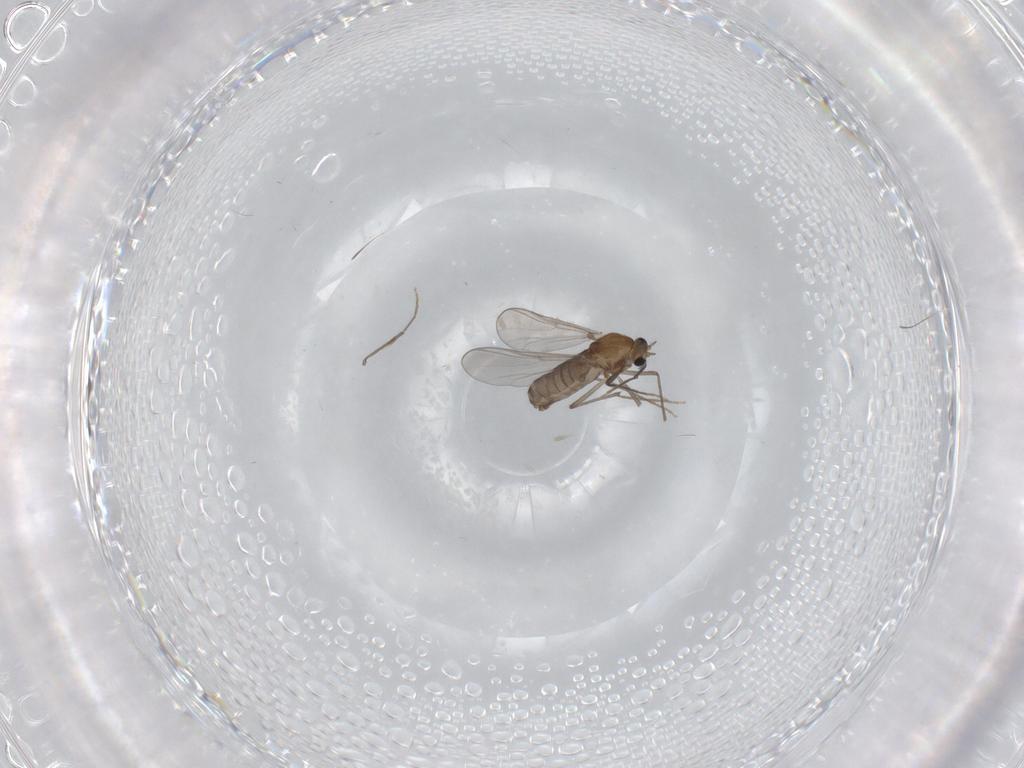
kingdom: Animalia
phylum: Arthropoda
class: Insecta
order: Diptera
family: Chironomidae
